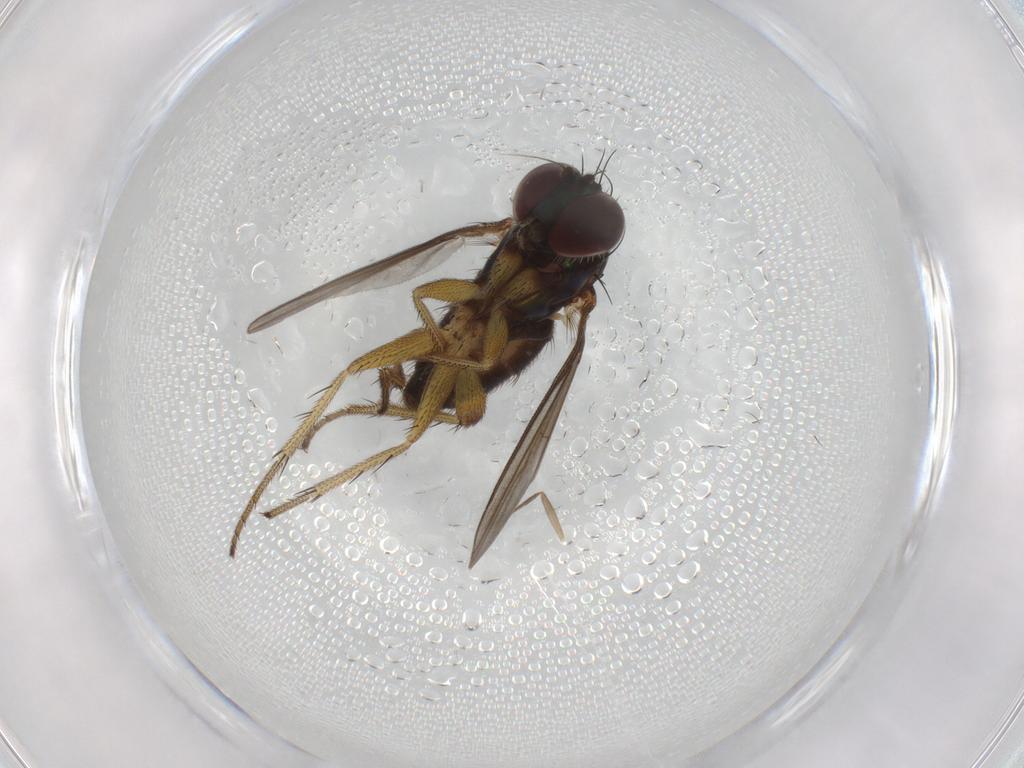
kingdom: Animalia
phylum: Arthropoda
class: Insecta
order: Diptera
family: Dolichopodidae
